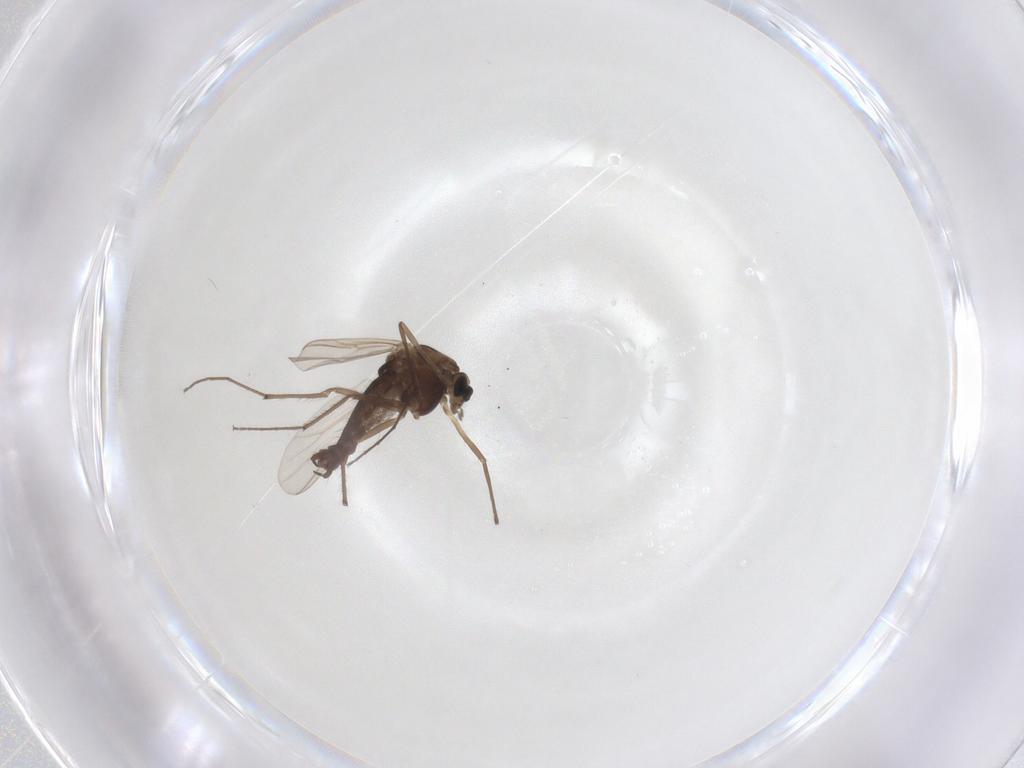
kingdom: Animalia
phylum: Arthropoda
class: Insecta
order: Diptera
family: Chironomidae
